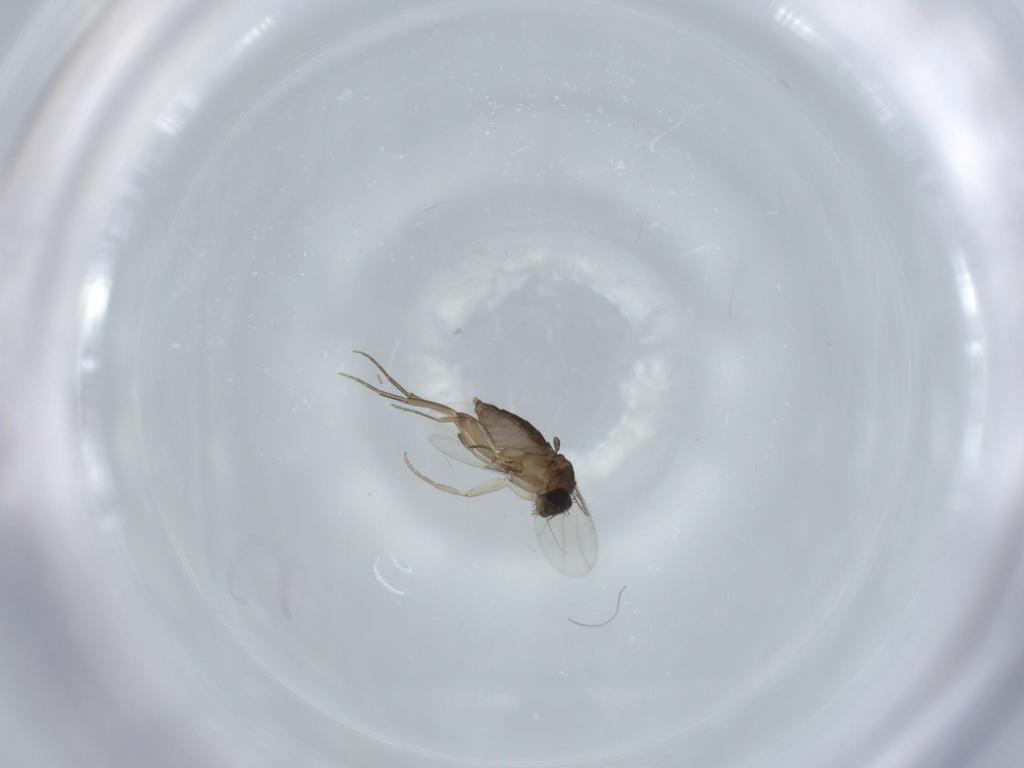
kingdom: Animalia
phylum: Arthropoda
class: Insecta
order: Diptera
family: Phoridae
